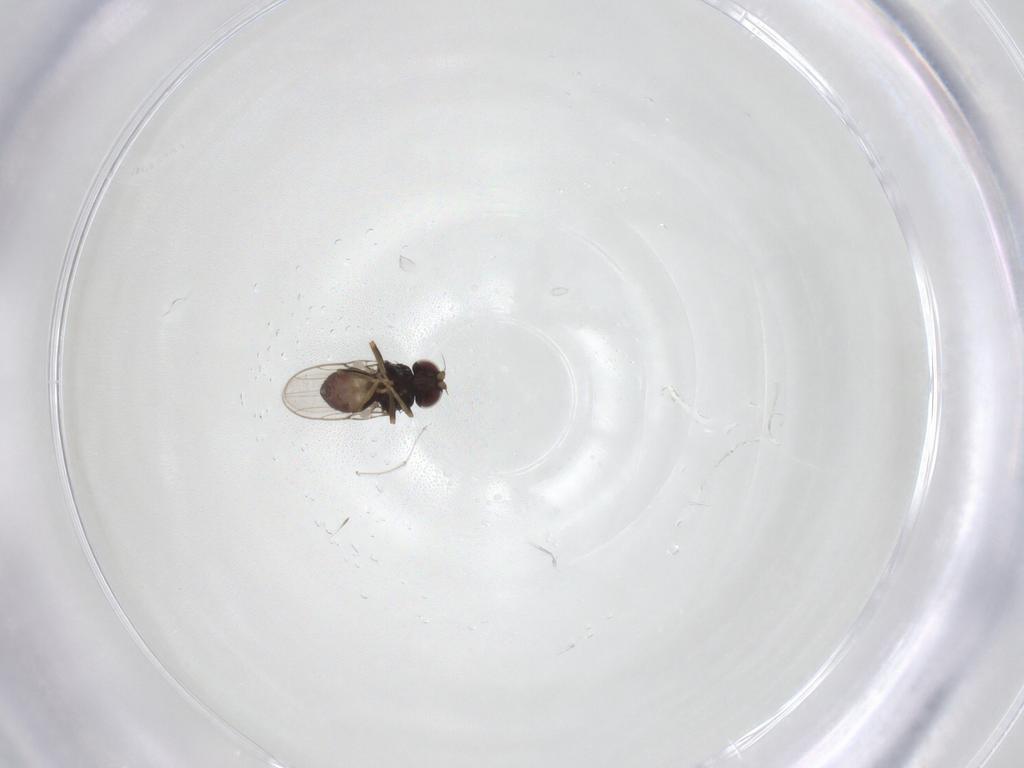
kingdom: Animalia
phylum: Arthropoda
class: Insecta
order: Diptera
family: Chloropidae
